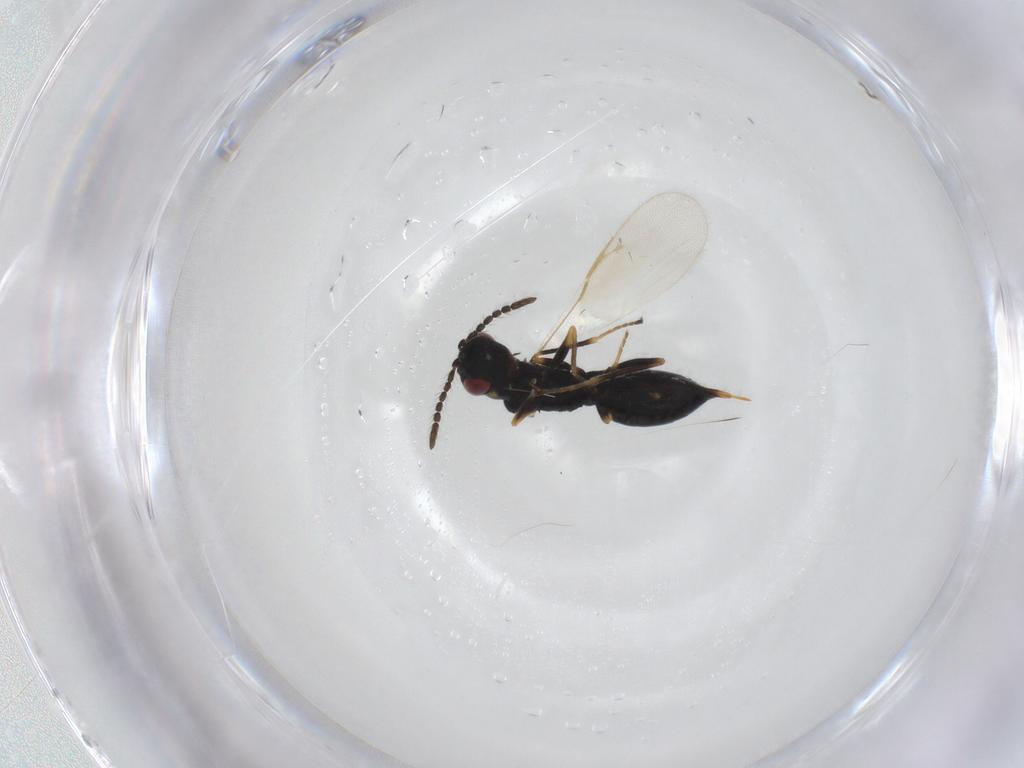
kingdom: Animalia
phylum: Arthropoda
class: Insecta
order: Hymenoptera
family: Eurytomidae
